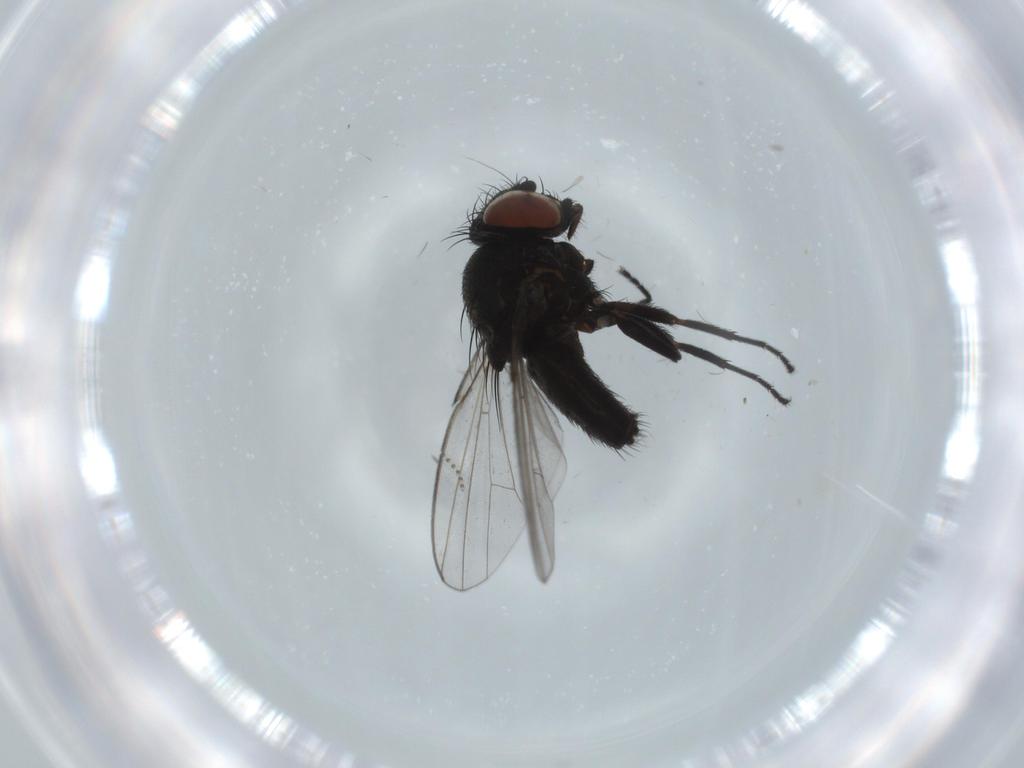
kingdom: Animalia
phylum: Arthropoda
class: Insecta
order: Diptera
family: Milichiidae
